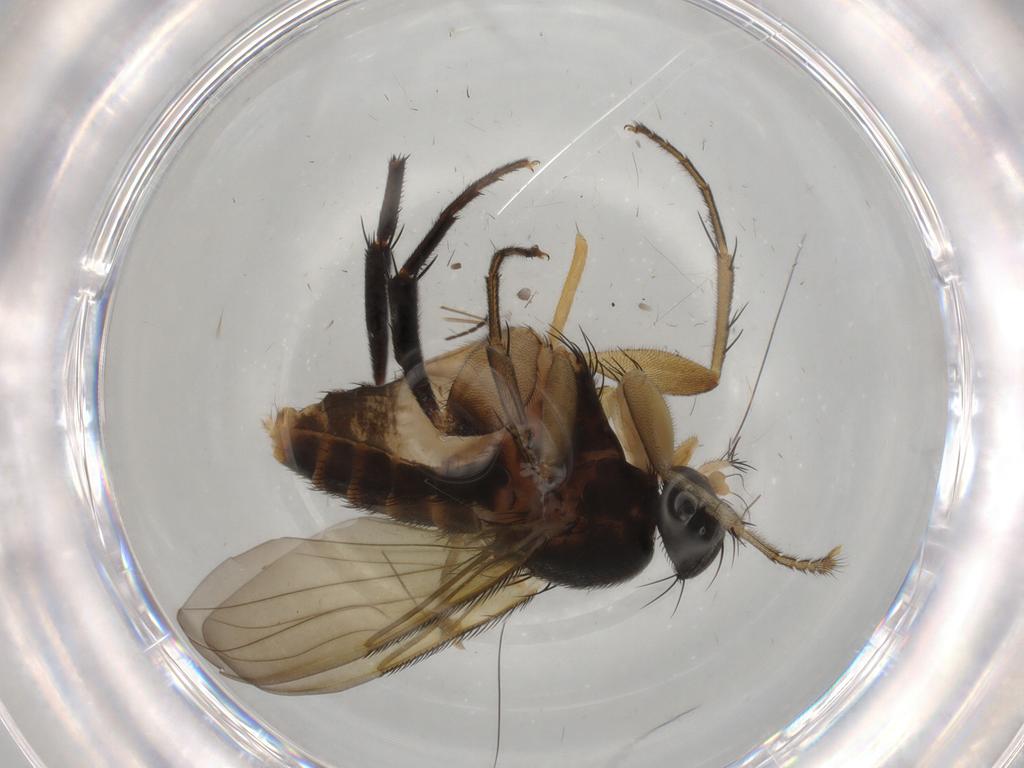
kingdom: Animalia
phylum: Arthropoda
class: Insecta
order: Diptera
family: Phoridae
